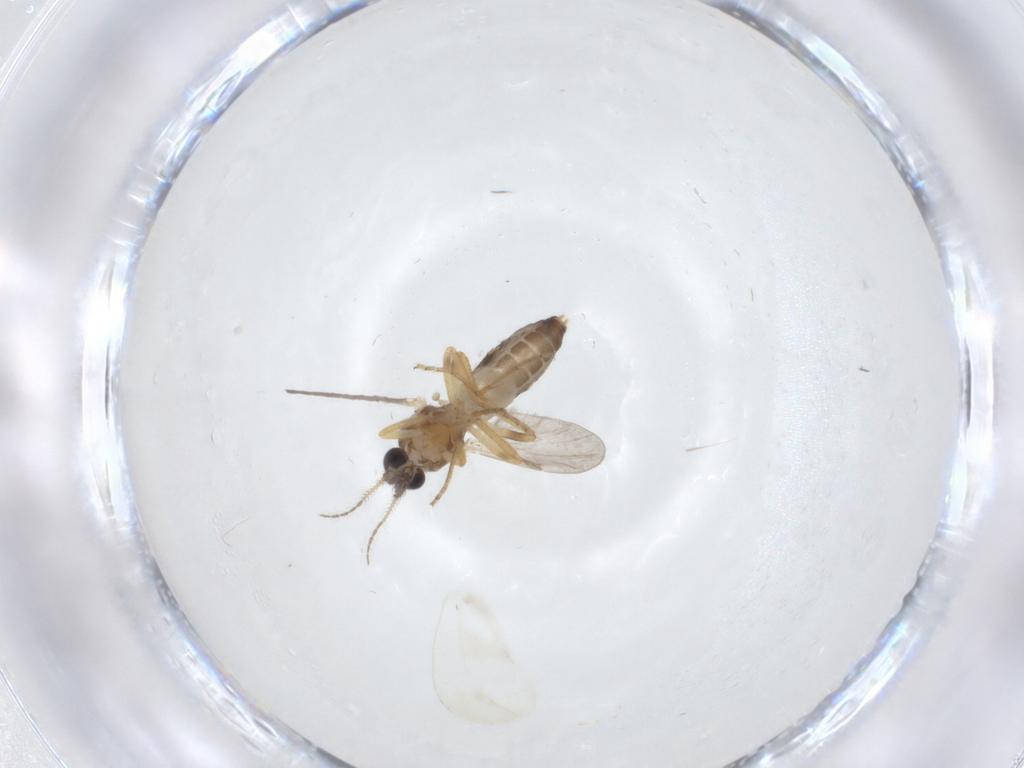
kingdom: Animalia
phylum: Arthropoda
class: Insecta
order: Diptera
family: Ceratopogonidae
